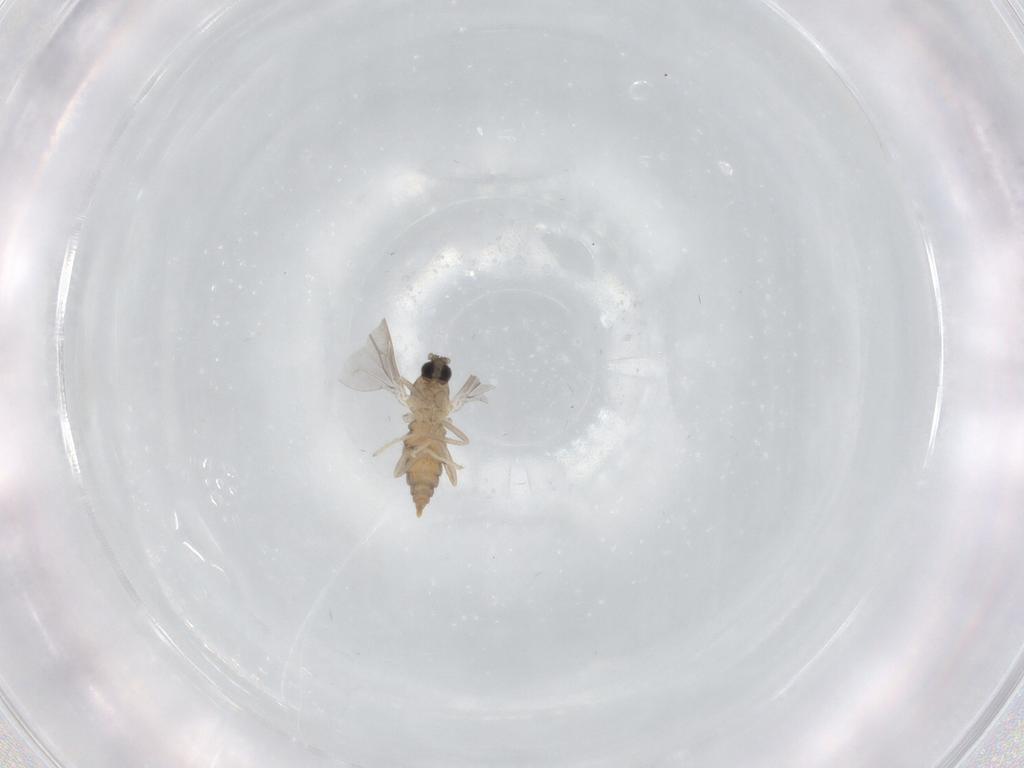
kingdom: Animalia
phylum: Arthropoda
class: Insecta
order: Diptera
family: Cecidomyiidae
